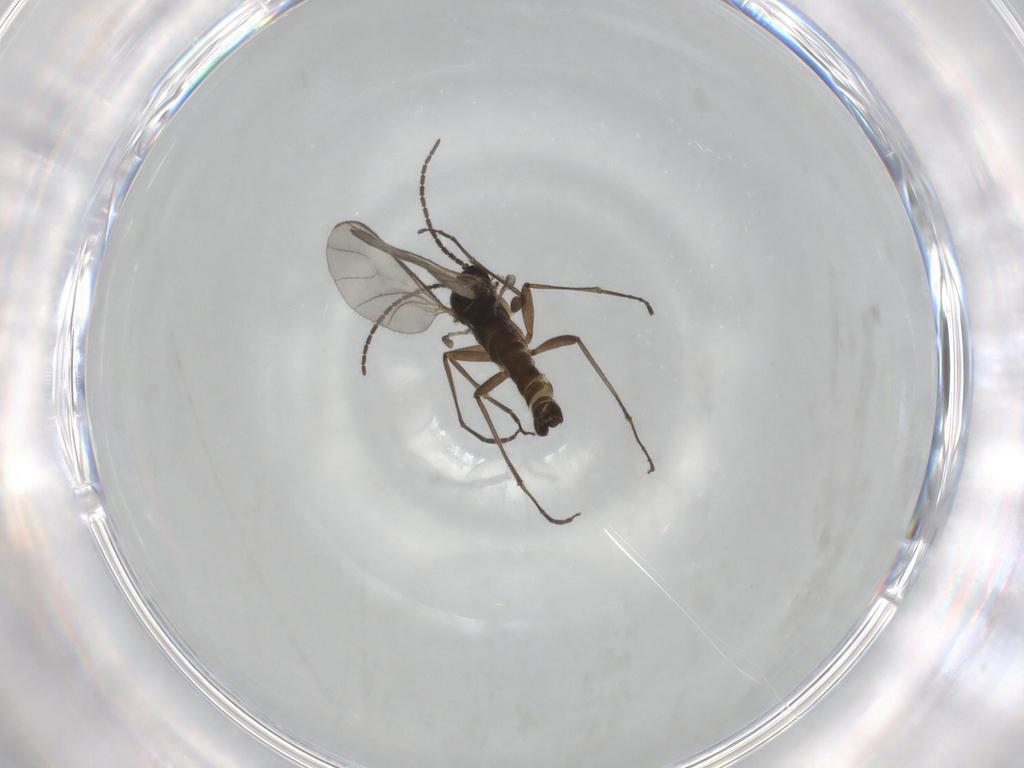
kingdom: Animalia
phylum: Arthropoda
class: Insecta
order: Diptera
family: Sciaridae
